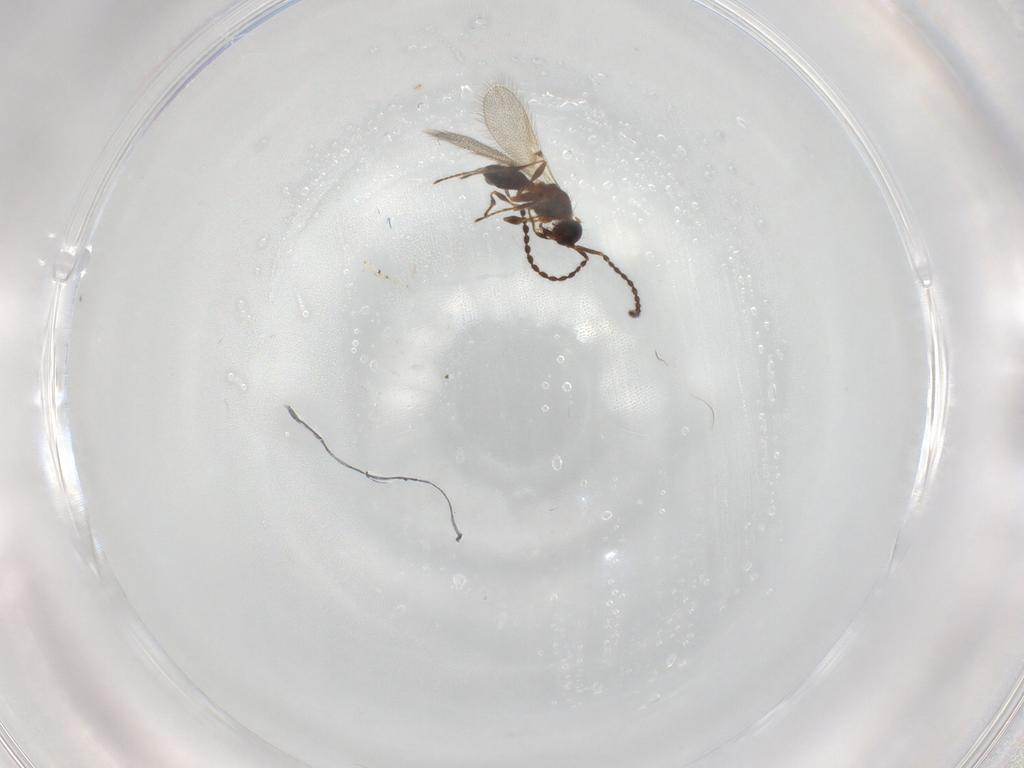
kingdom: Animalia
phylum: Arthropoda
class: Insecta
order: Hymenoptera
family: Diapriidae
